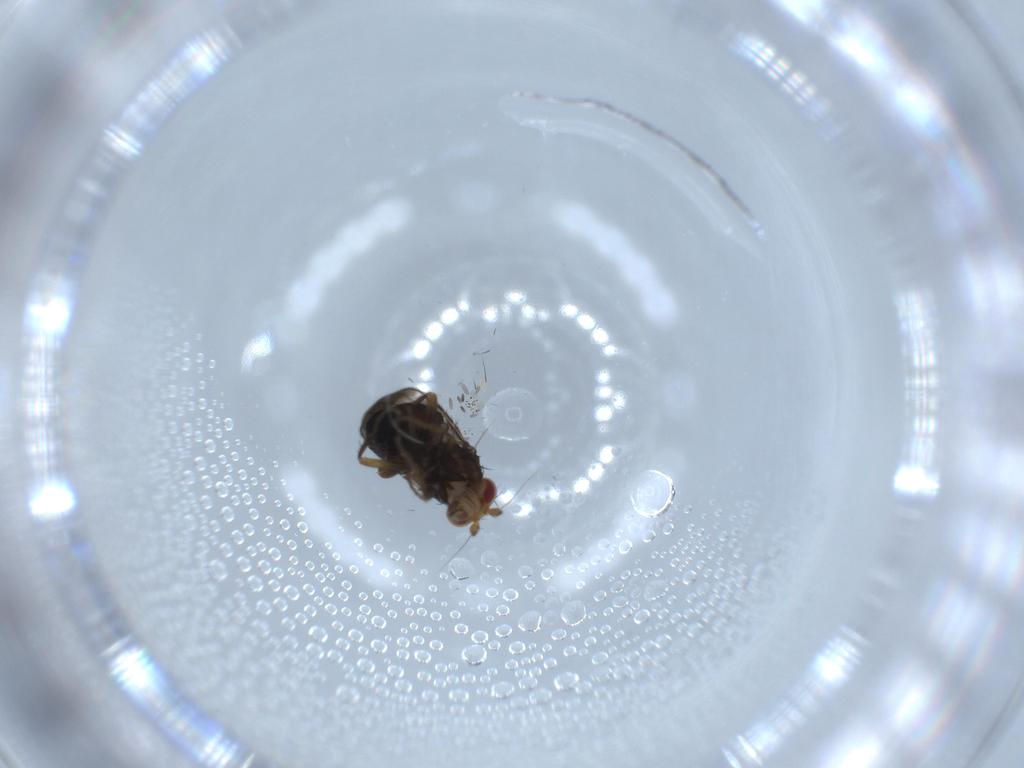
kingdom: Animalia
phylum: Arthropoda
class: Insecta
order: Diptera
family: Sphaeroceridae
